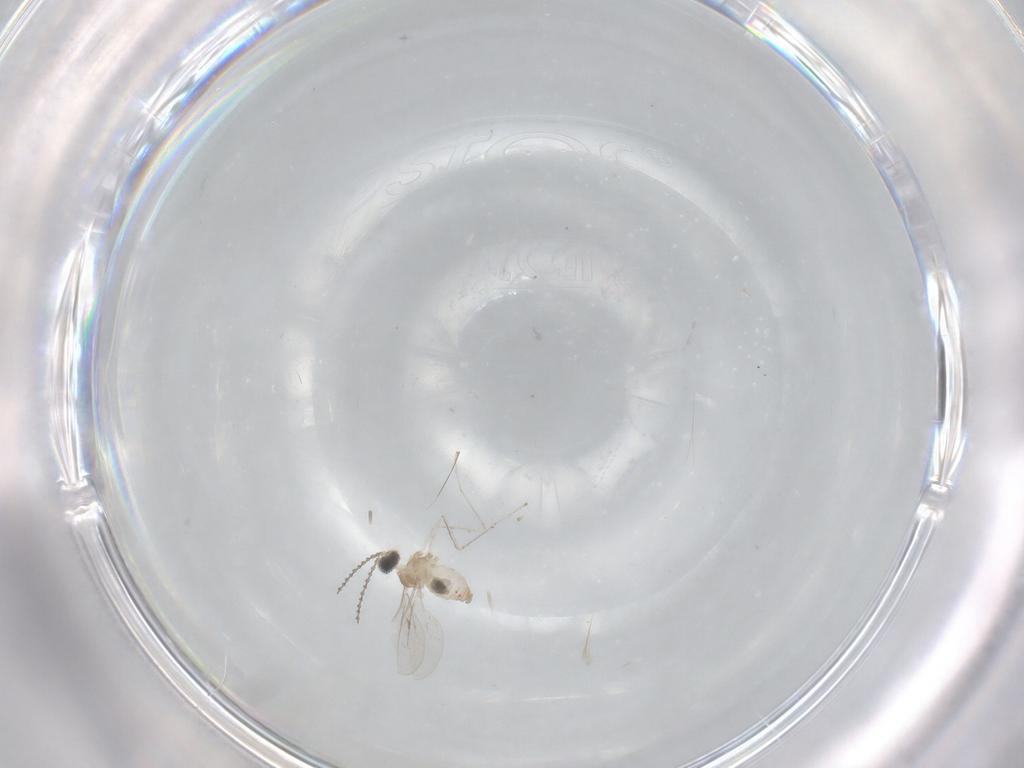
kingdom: Animalia
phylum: Arthropoda
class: Insecta
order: Diptera
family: Cecidomyiidae
